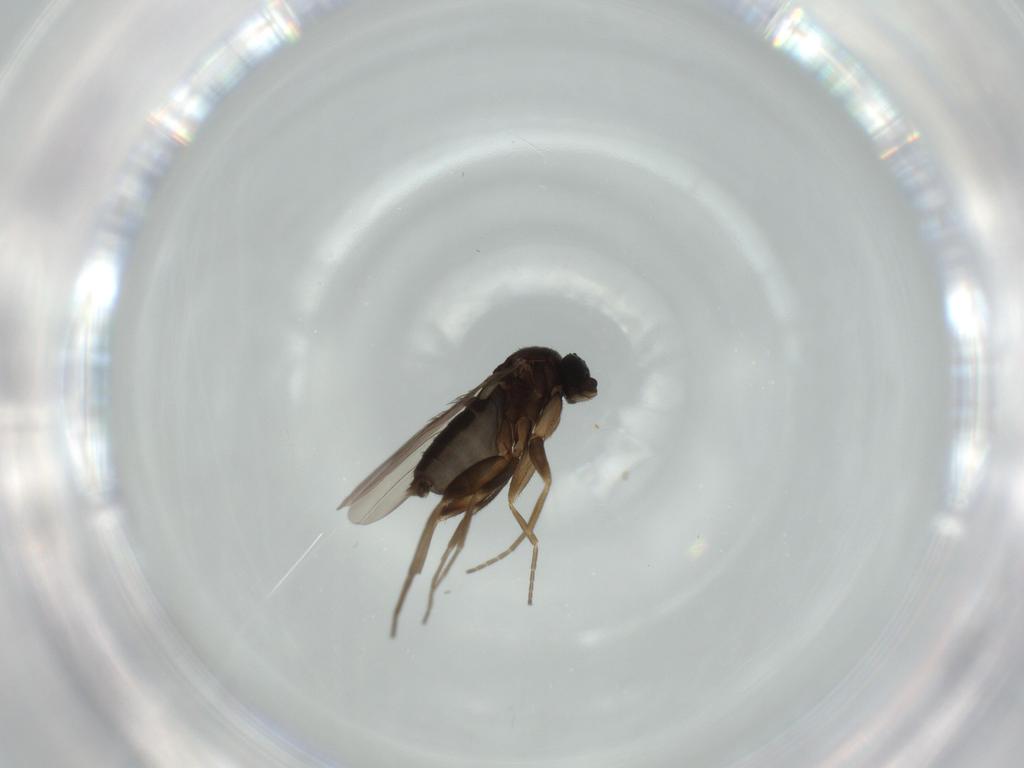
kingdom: Animalia
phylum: Arthropoda
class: Insecta
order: Diptera
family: Phoridae
